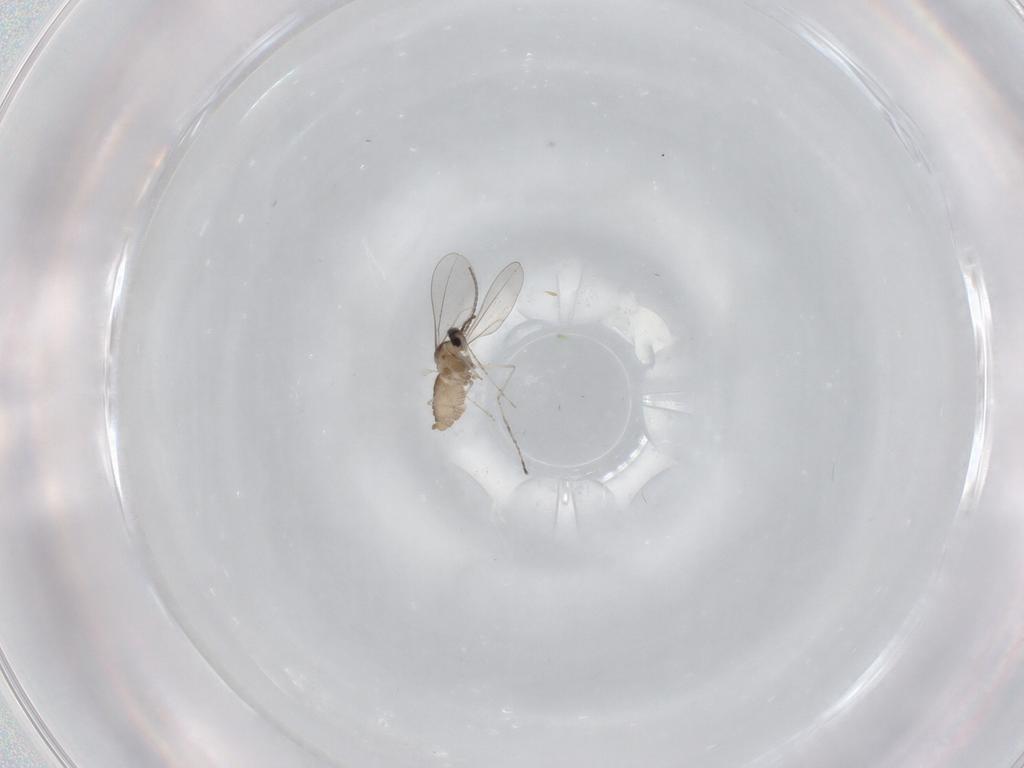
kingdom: Animalia
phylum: Arthropoda
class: Insecta
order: Diptera
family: Cecidomyiidae
